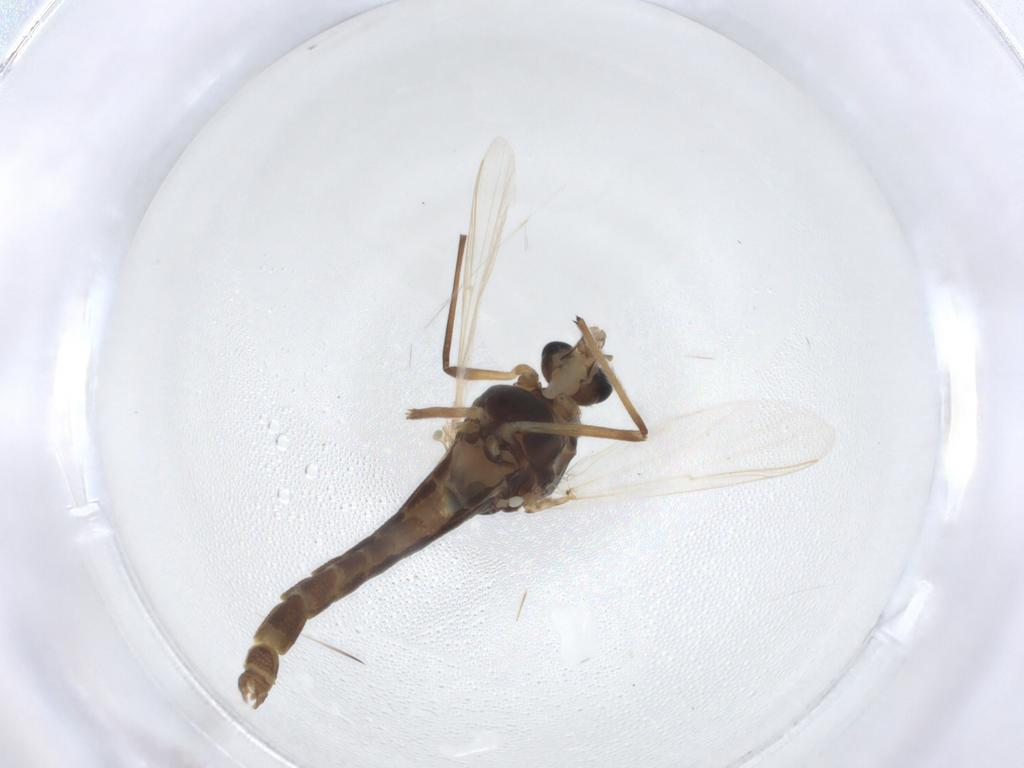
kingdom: Animalia
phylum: Arthropoda
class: Insecta
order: Diptera
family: Chironomidae
